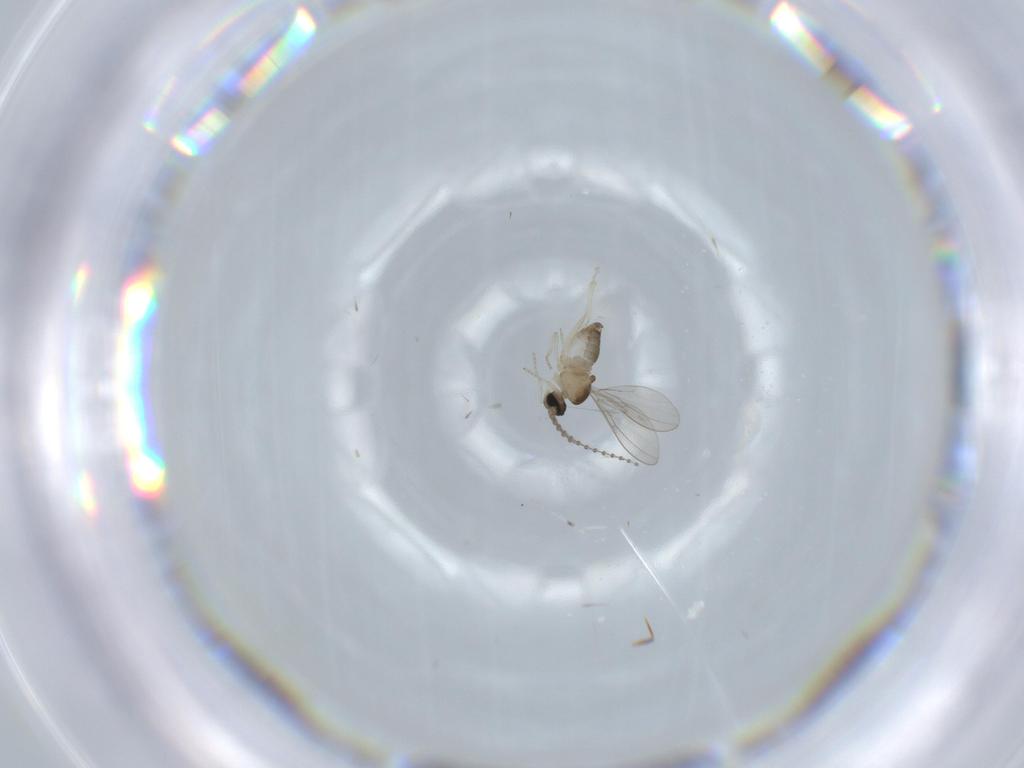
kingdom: Animalia
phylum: Arthropoda
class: Insecta
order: Diptera
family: Cecidomyiidae
